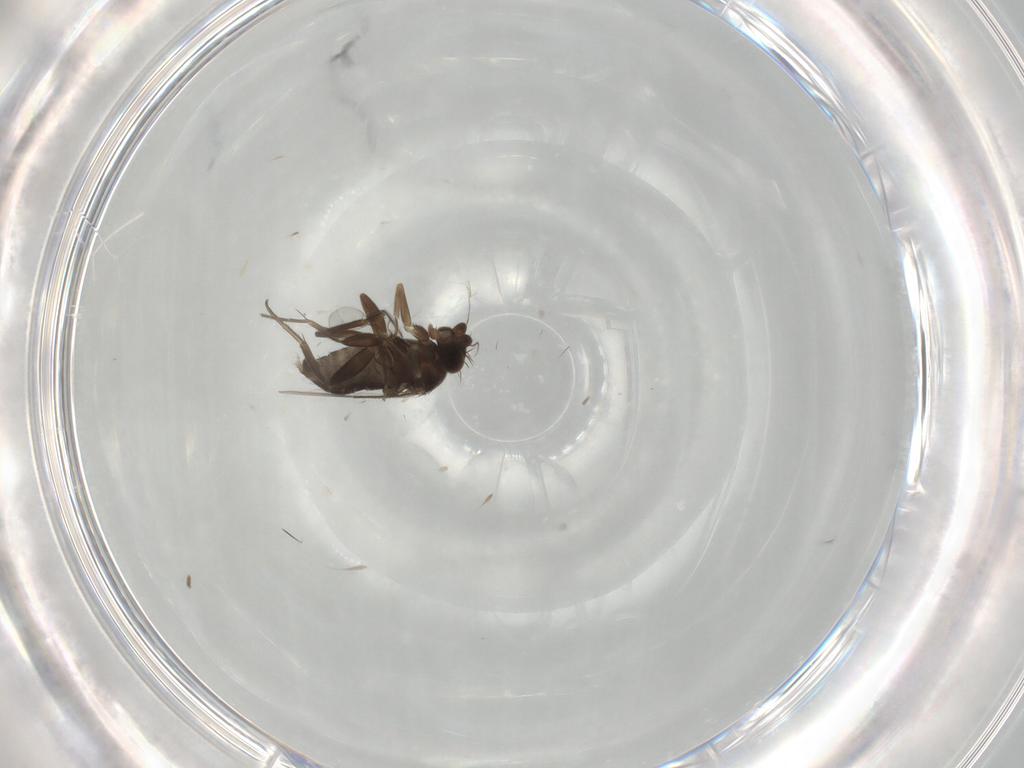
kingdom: Animalia
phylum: Arthropoda
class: Insecta
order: Diptera
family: Phoridae
